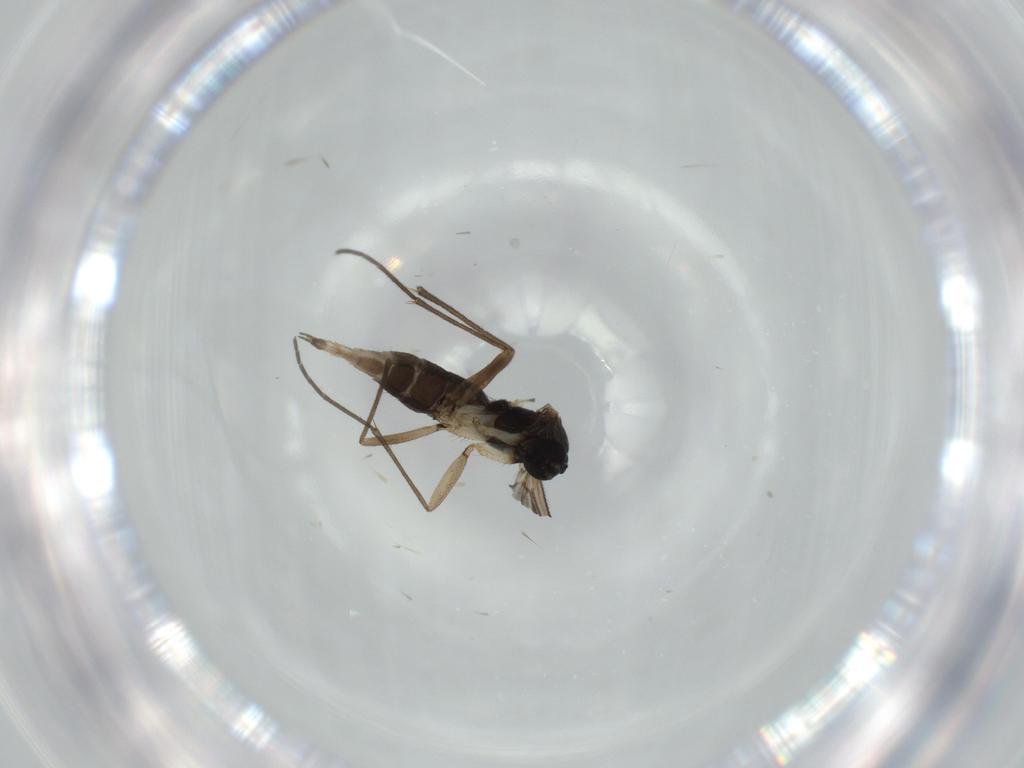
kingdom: Animalia
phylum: Arthropoda
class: Insecta
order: Diptera
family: Sciaridae
